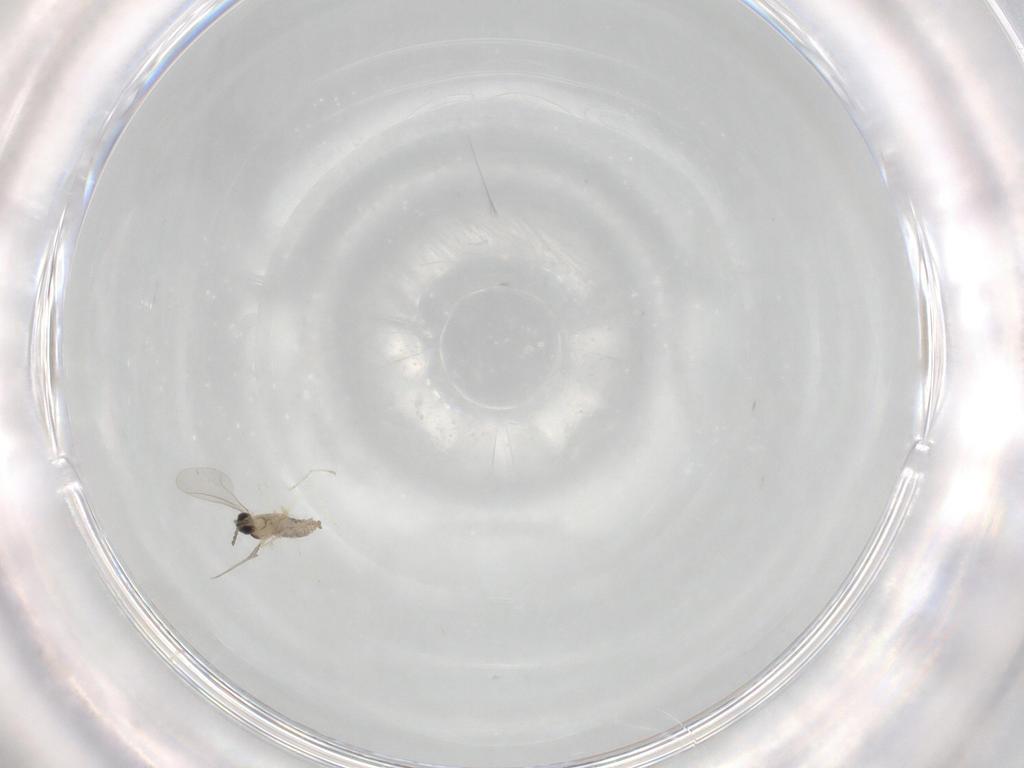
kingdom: Animalia
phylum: Arthropoda
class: Insecta
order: Diptera
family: Cecidomyiidae
